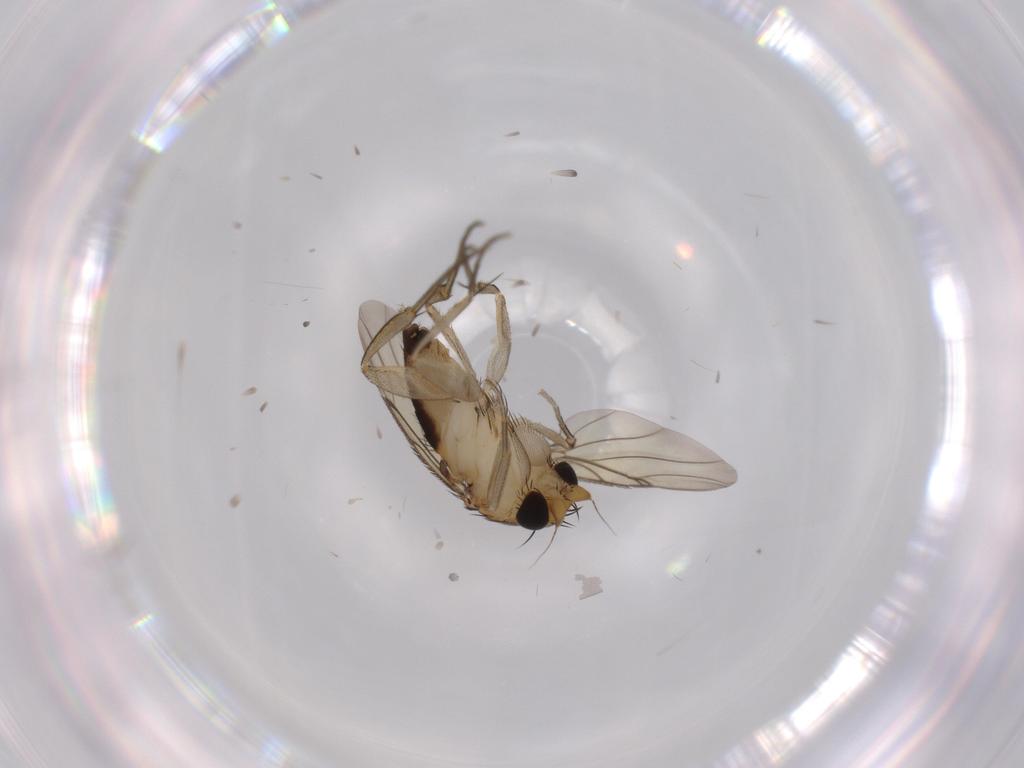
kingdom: Animalia
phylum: Arthropoda
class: Insecta
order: Diptera
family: Phoridae
